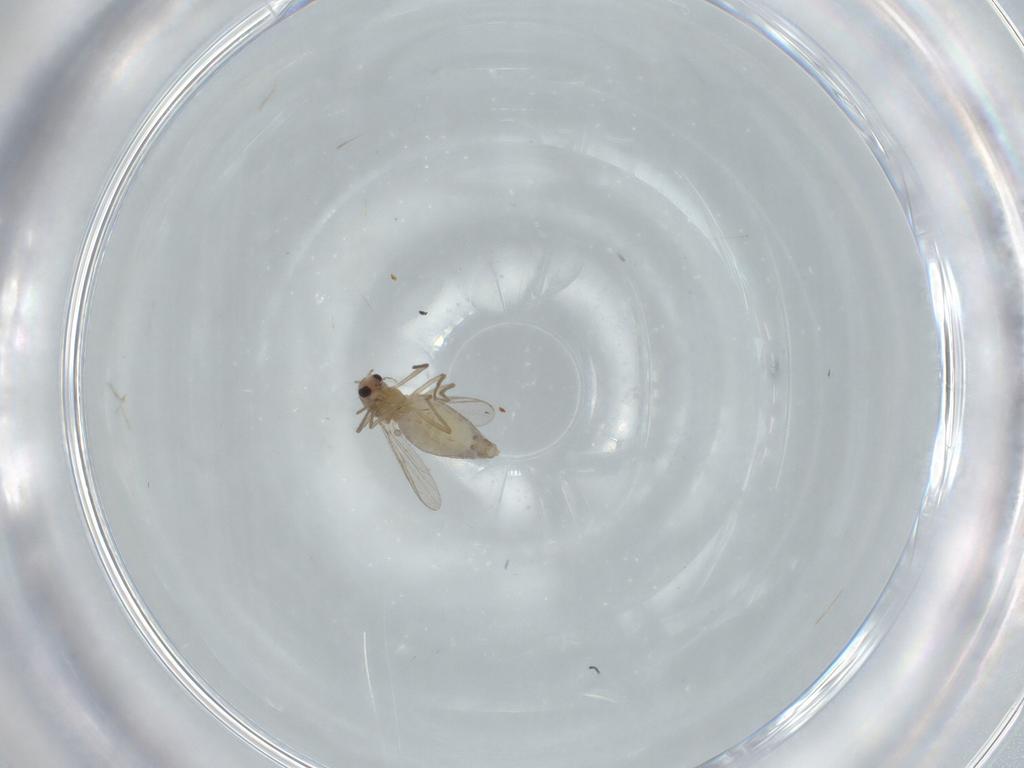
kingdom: Animalia
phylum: Arthropoda
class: Insecta
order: Diptera
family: Chironomidae
